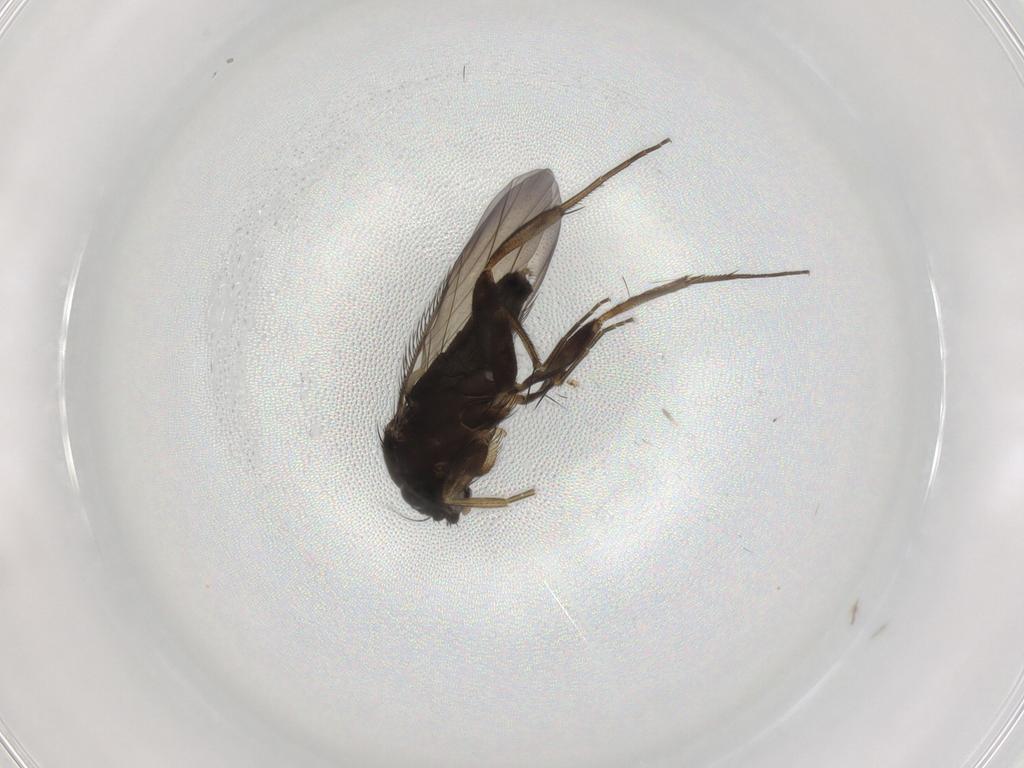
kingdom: Animalia
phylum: Arthropoda
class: Insecta
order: Diptera
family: Phoridae
